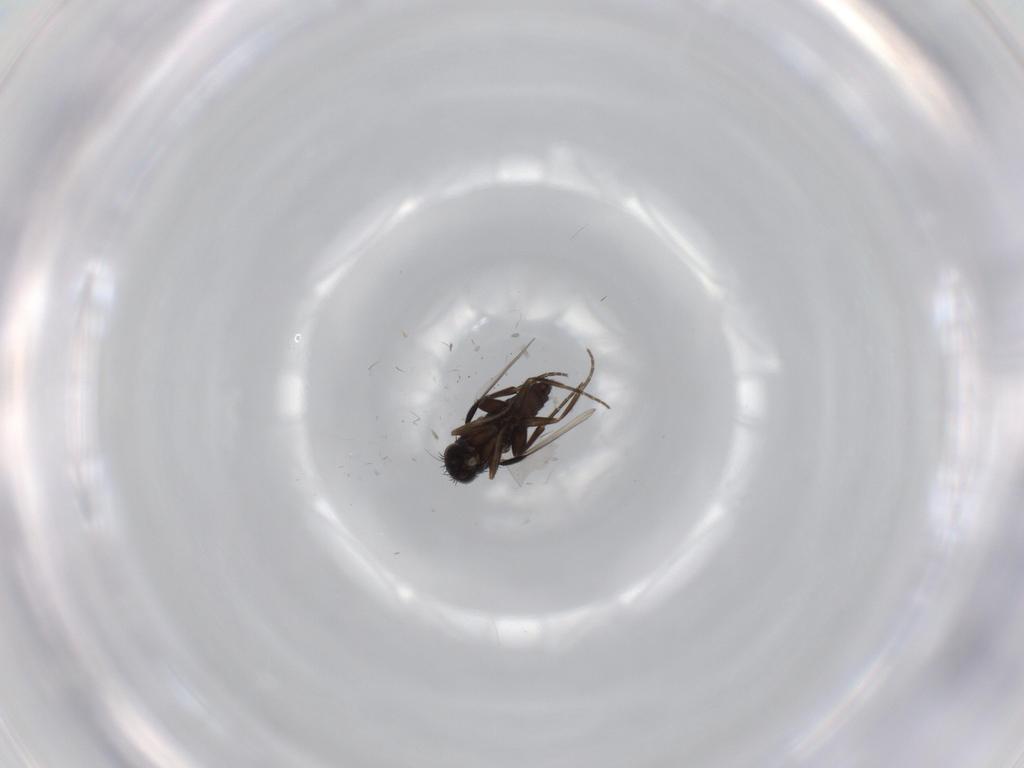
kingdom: Animalia
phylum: Arthropoda
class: Insecta
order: Diptera
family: Phoridae
